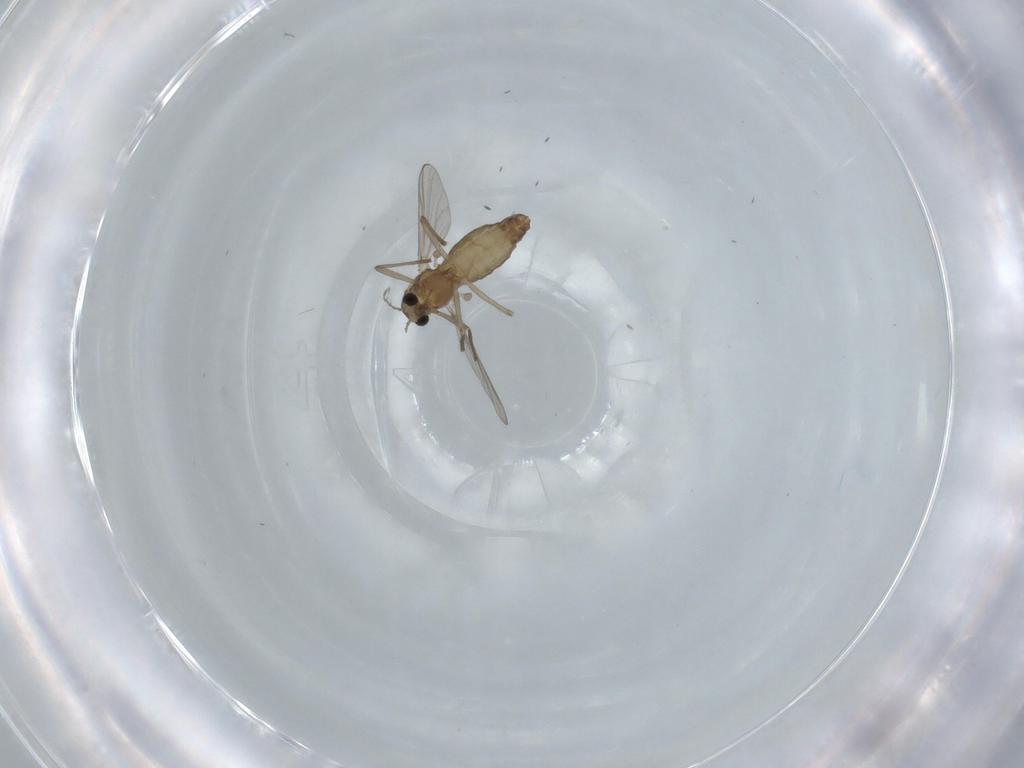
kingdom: Animalia
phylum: Arthropoda
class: Insecta
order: Diptera
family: Chironomidae
